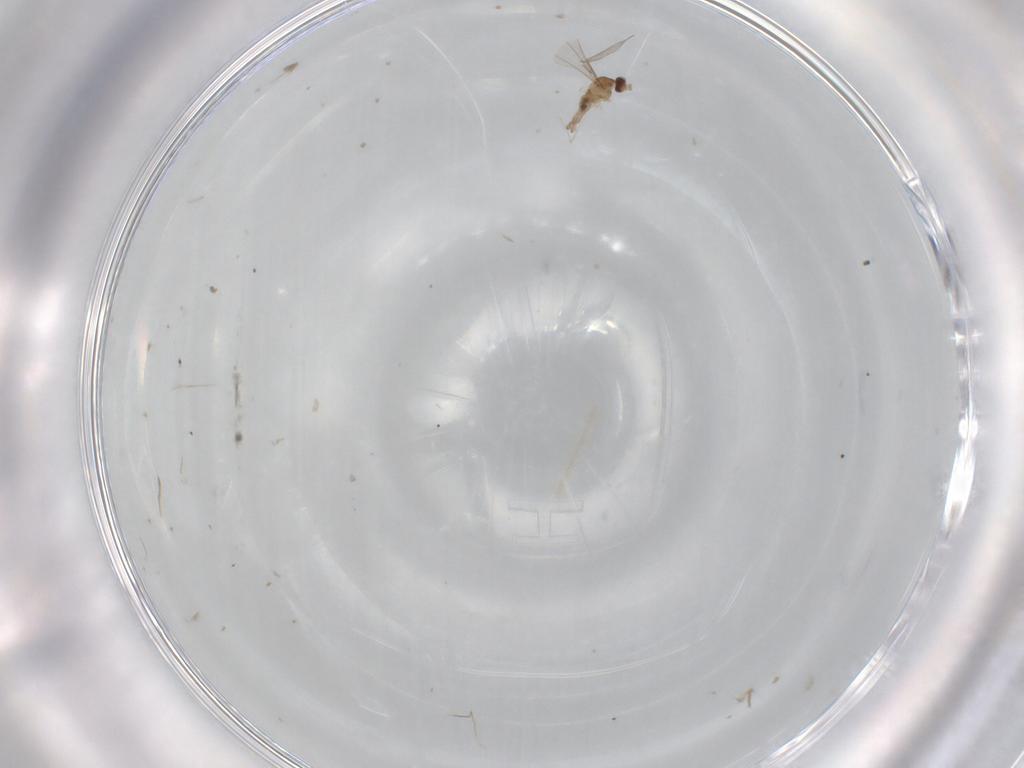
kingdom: Animalia
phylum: Arthropoda
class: Insecta
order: Diptera
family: Cecidomyiidae
